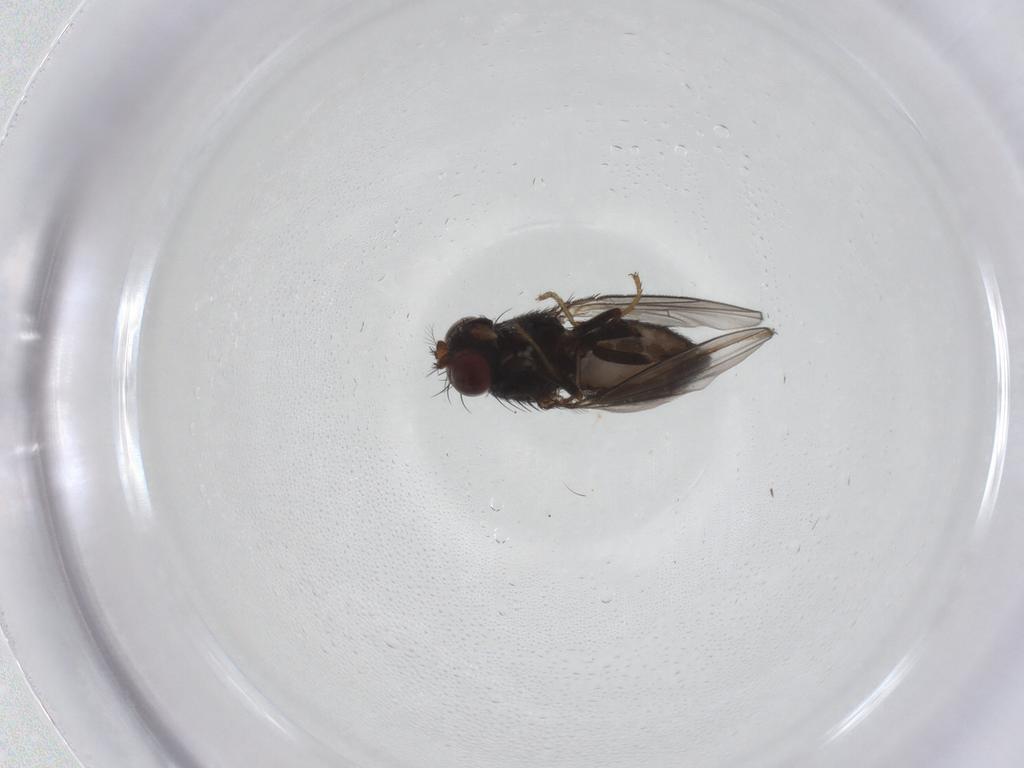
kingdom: Animalia
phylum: Arthropoda
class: Insecta
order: Diptera
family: Ephydridae
